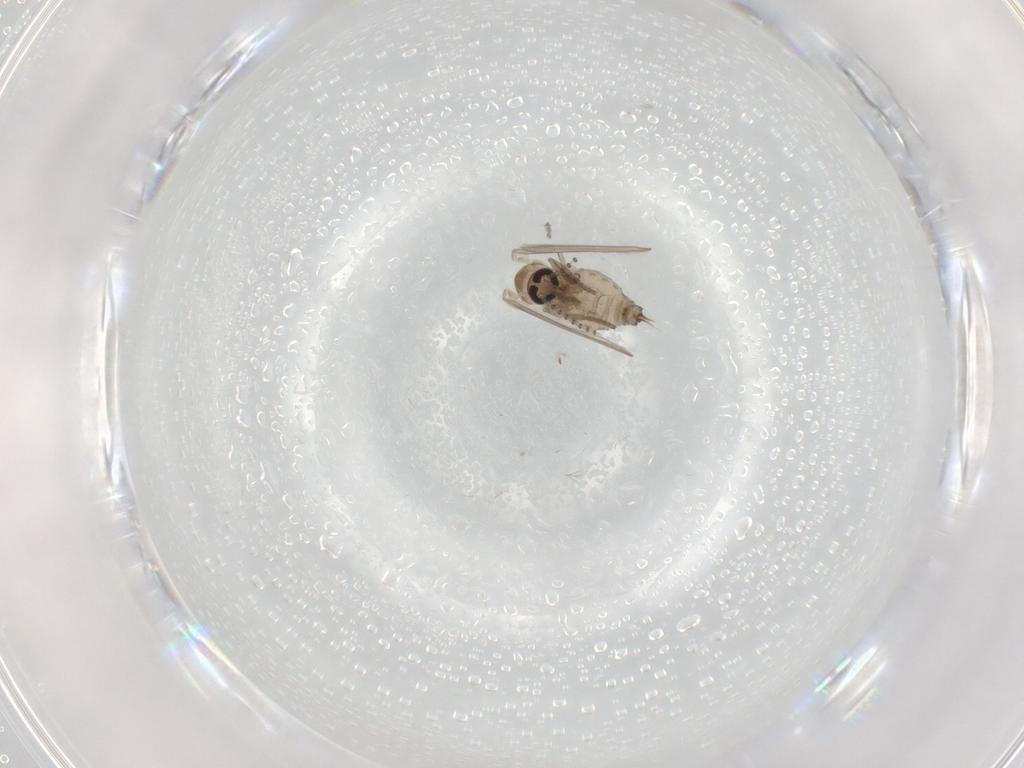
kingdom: Animalia
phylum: Arthropoda
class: Insecta
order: Diptera
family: Psychodidae
